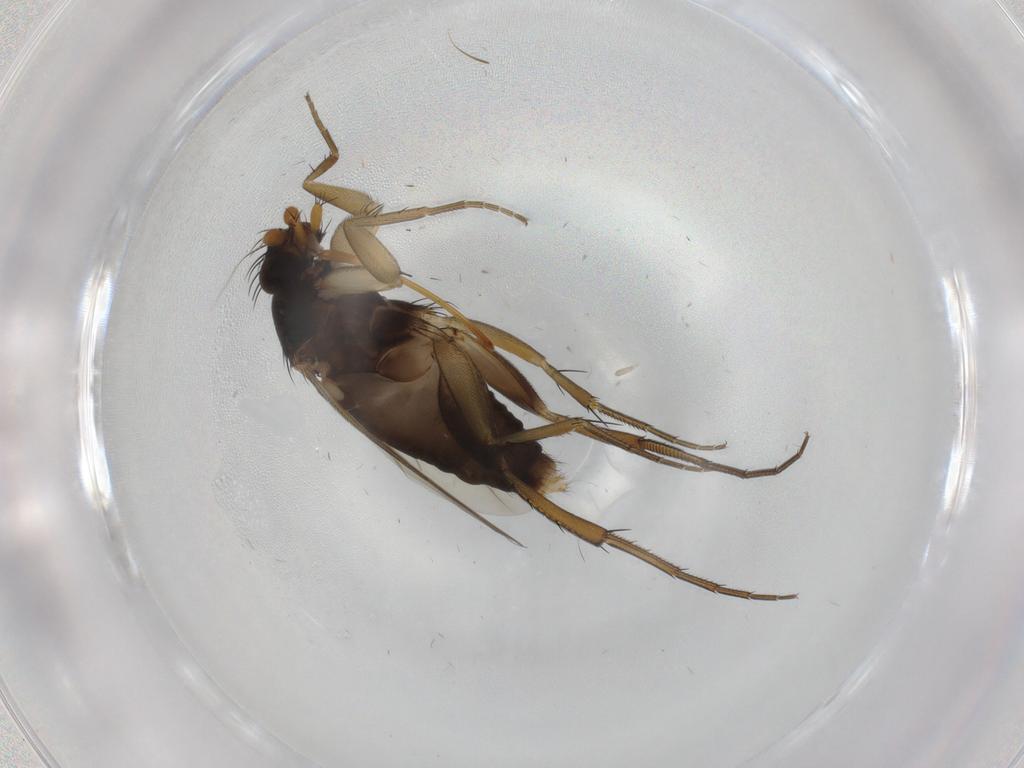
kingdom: Animalia
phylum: Arthropoda
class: Insecta
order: Diptera
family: Phoridae
